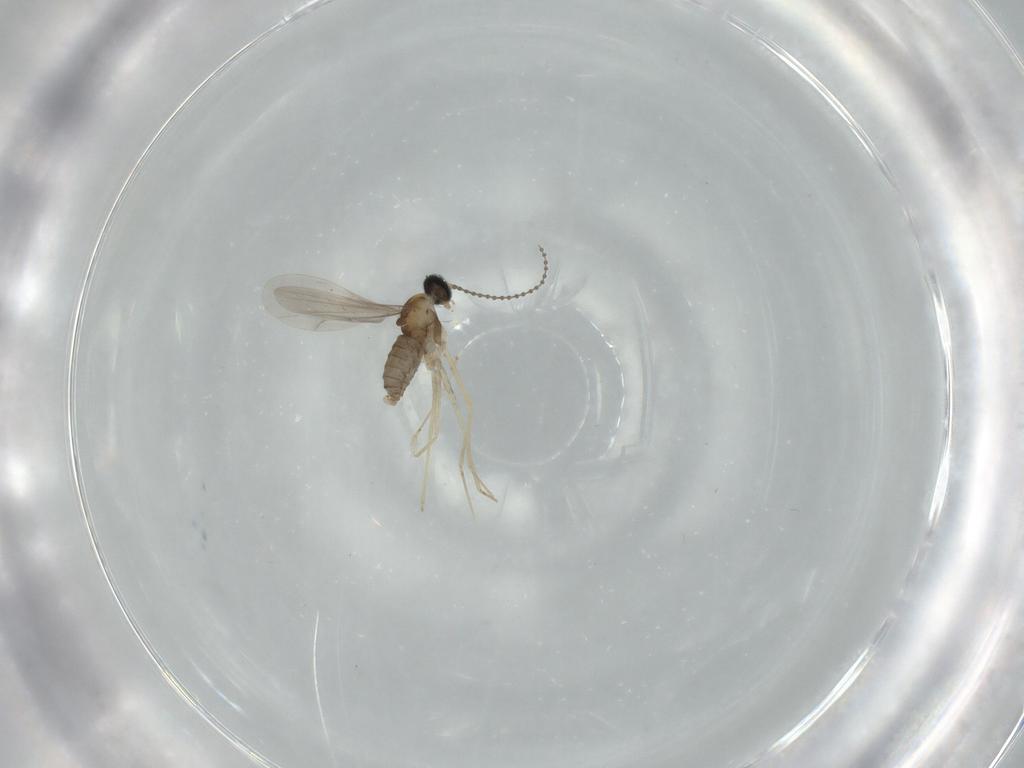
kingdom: Animalia
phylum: Arthropoda
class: Insecta
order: Diptera
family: Cecidomyiidae
